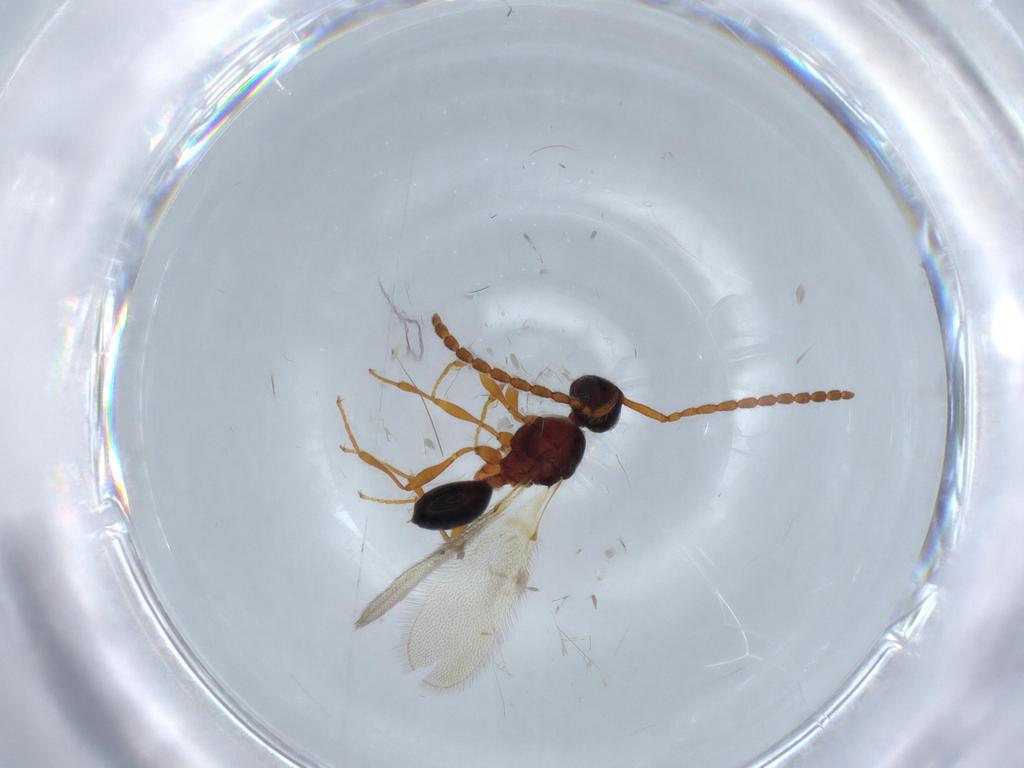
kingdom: Animalia
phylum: Arthropoda
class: Insecta
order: Hymenoptera
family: Diapriidae
